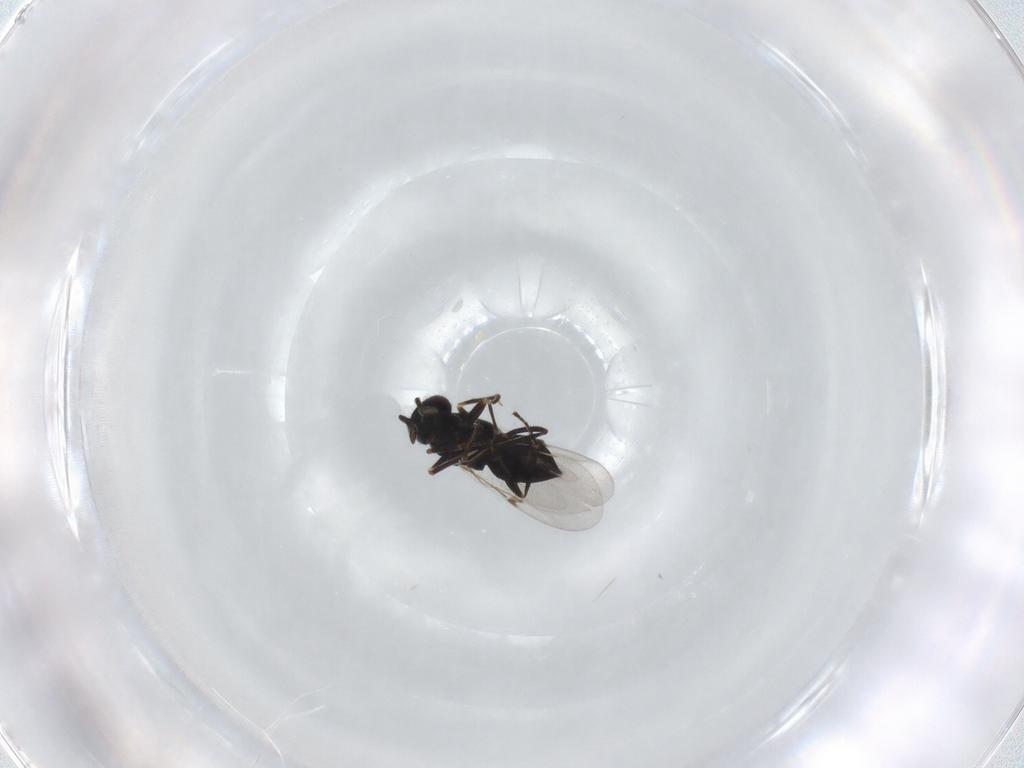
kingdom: Animalia
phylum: Arthropoda
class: Insecta
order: Hymenoptera
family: Encyrtidae
